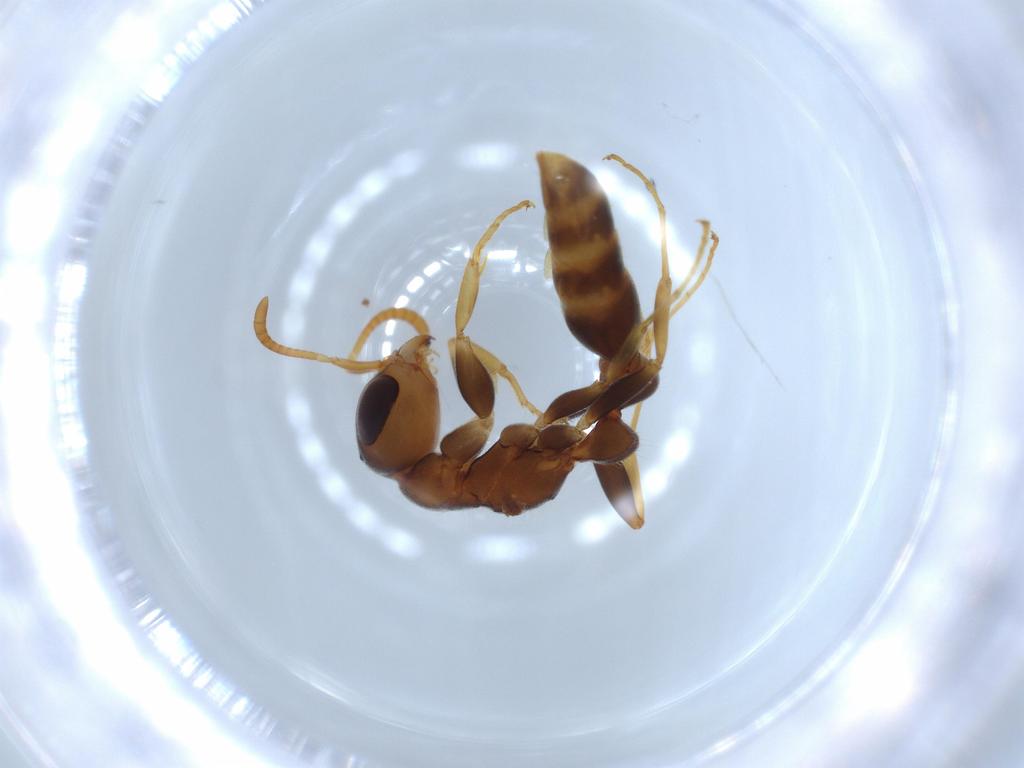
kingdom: Animalia
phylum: Arthropoda
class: Insecta
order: Hymenoptera
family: Formicidae
